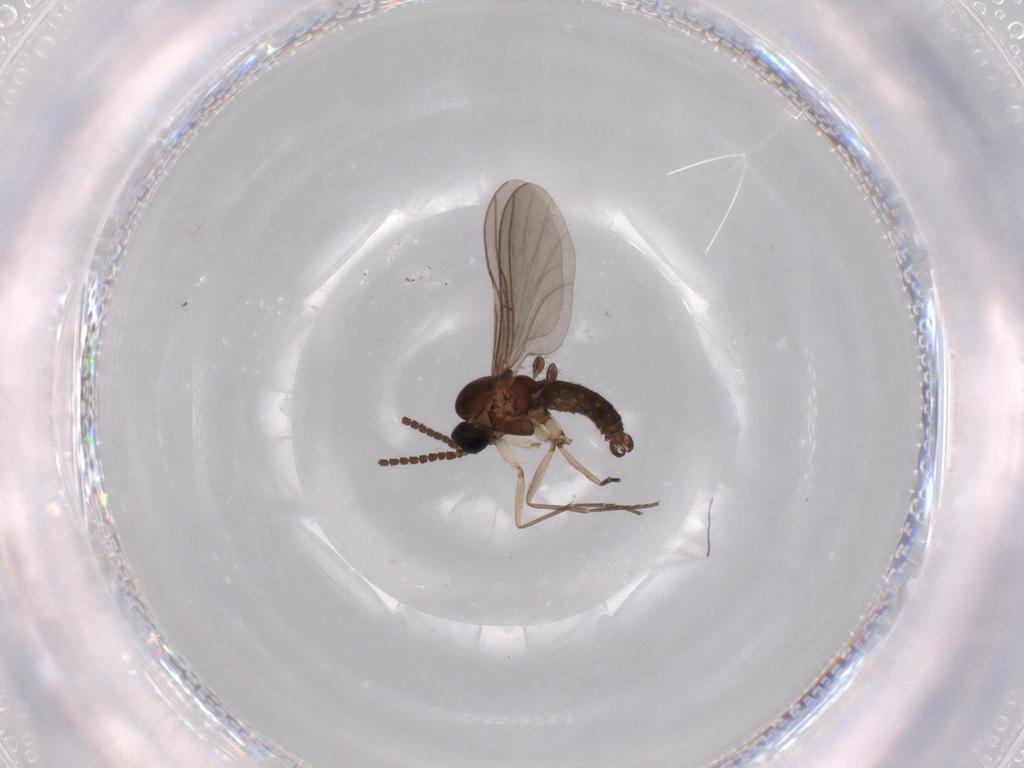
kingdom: Animalia
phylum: Arthropoda
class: Insecta
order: Diptera
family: Sciaridae
